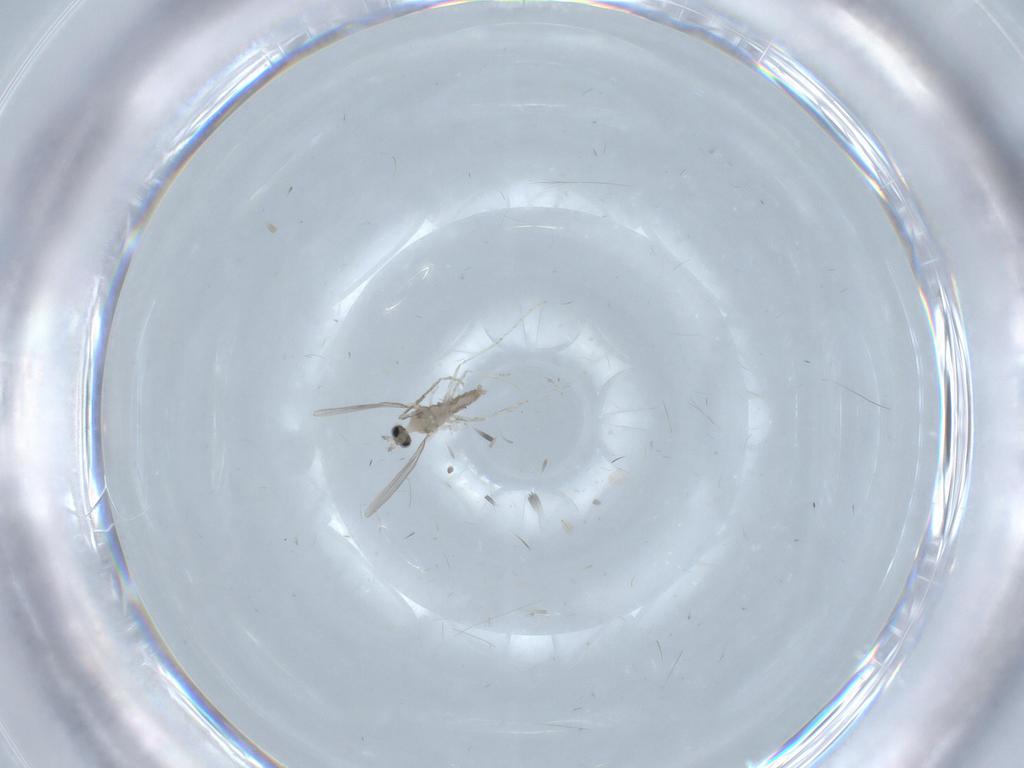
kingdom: Animalia
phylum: Arthropoda
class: Insecta
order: Diptera
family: Cecidomyiidae
